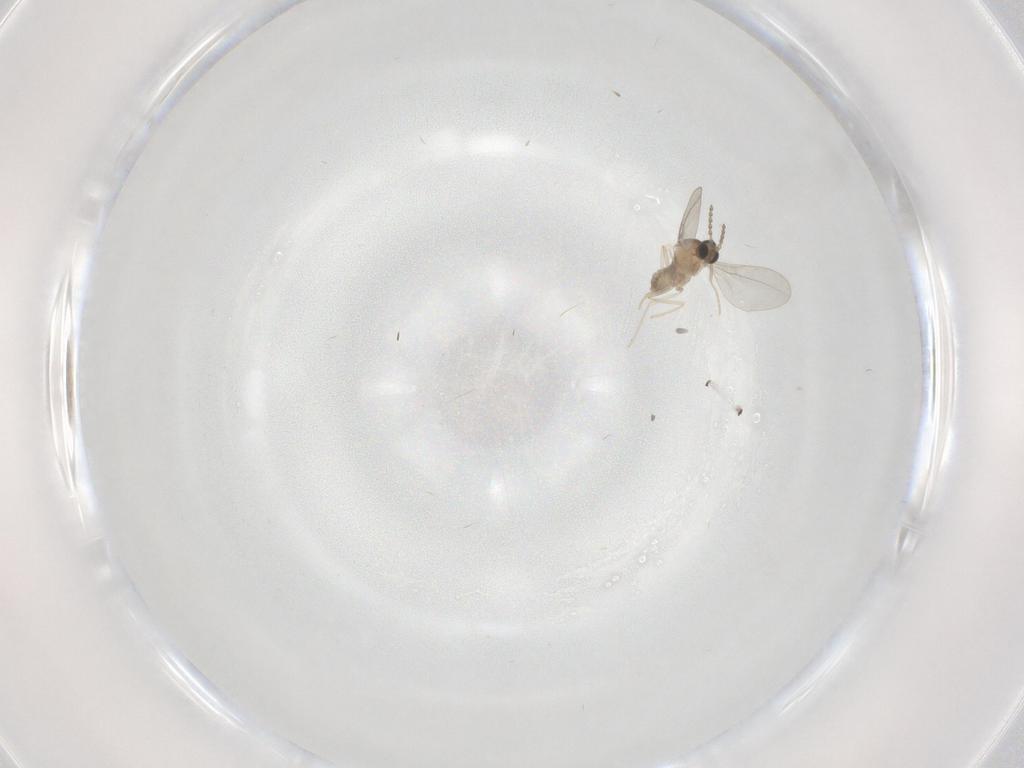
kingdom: Animalia
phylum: Arthropoda
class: Insecta
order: Diptera
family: Cecidomyiidae
